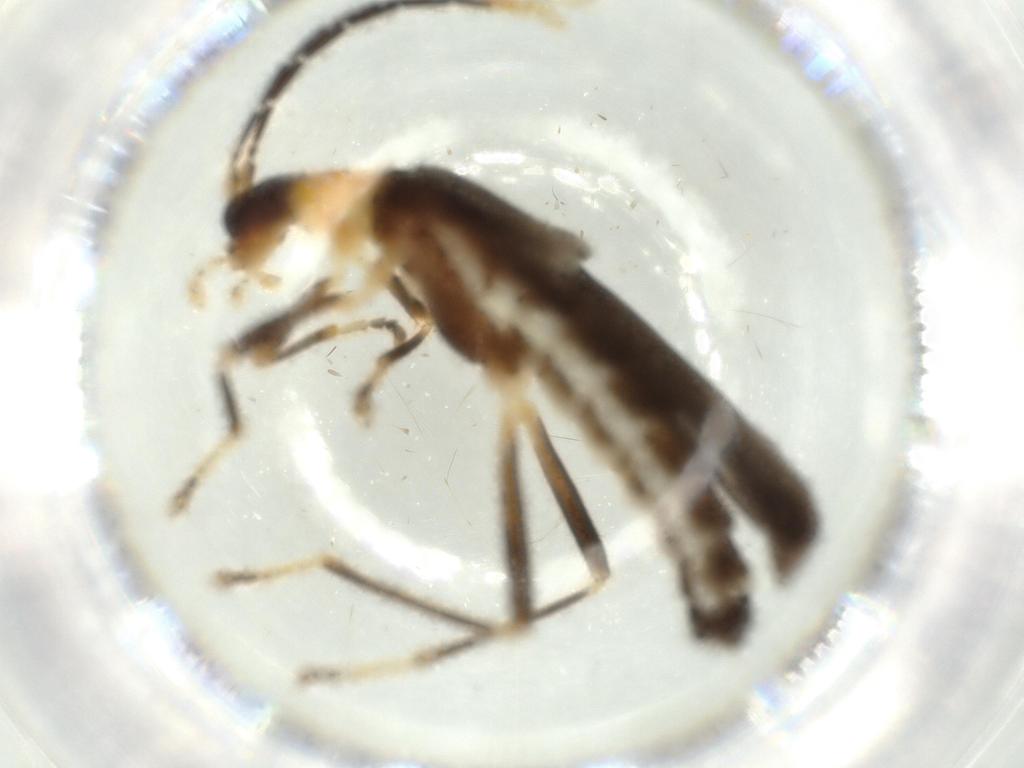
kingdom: Animalia
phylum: Arthropoda
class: Insecta
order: Coleoptera
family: Cantharidae
